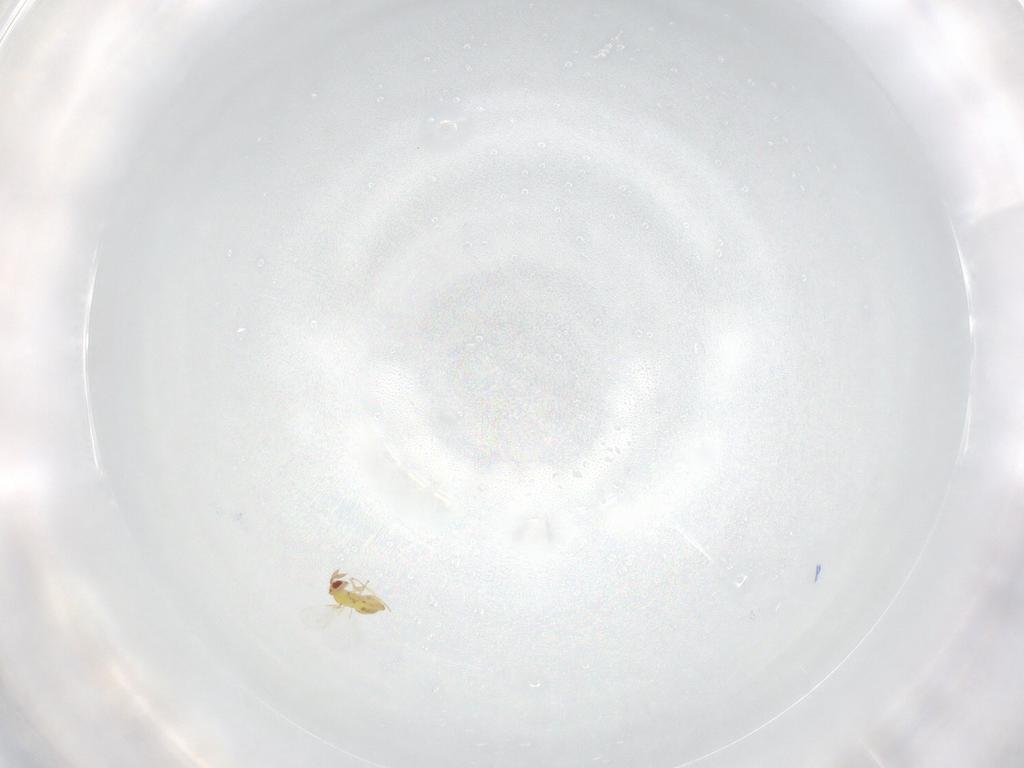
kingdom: Animalia
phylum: Arthropoda
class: Insecta
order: Hymenoptera
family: Trichogrammatidae
